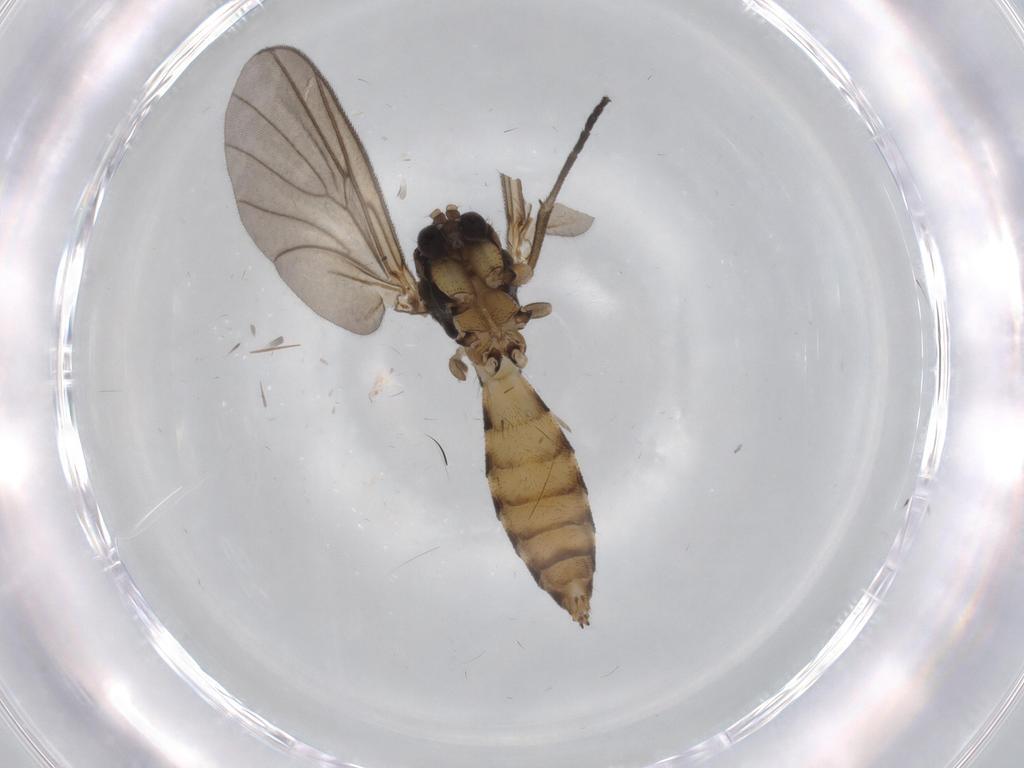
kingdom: Animalia
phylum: Arthropoda
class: Insecta
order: Diptera
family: Mycetophilidae
